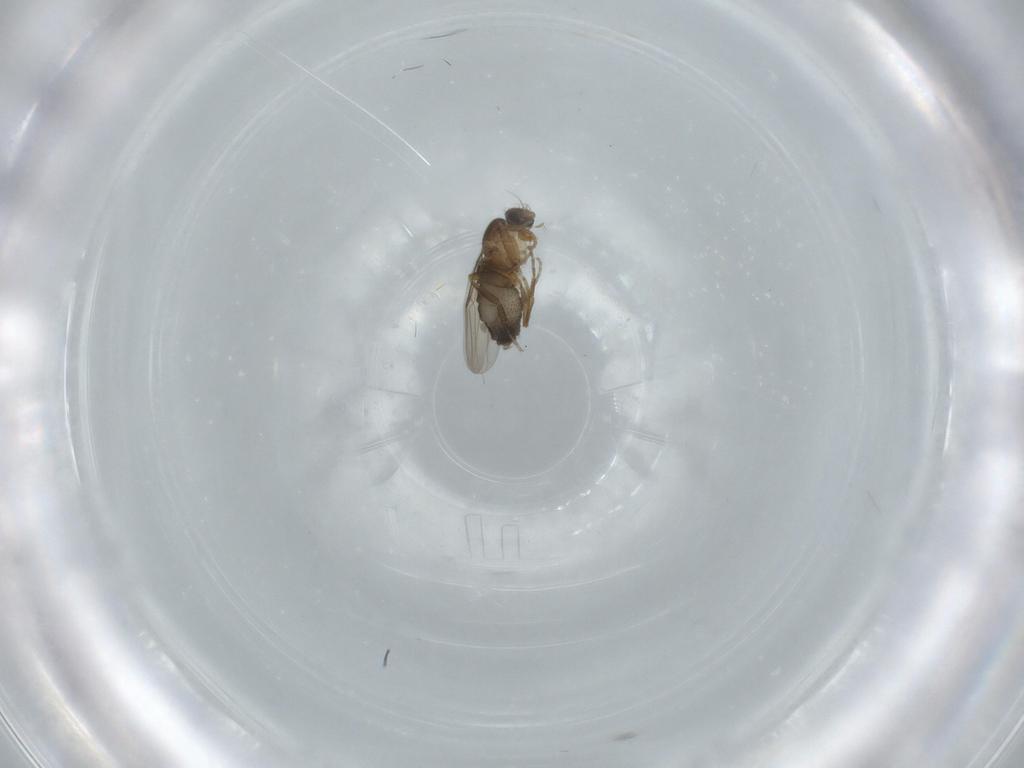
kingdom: Animalia
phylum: Arthropoda
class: Insecta
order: Diptera
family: Phoridae
